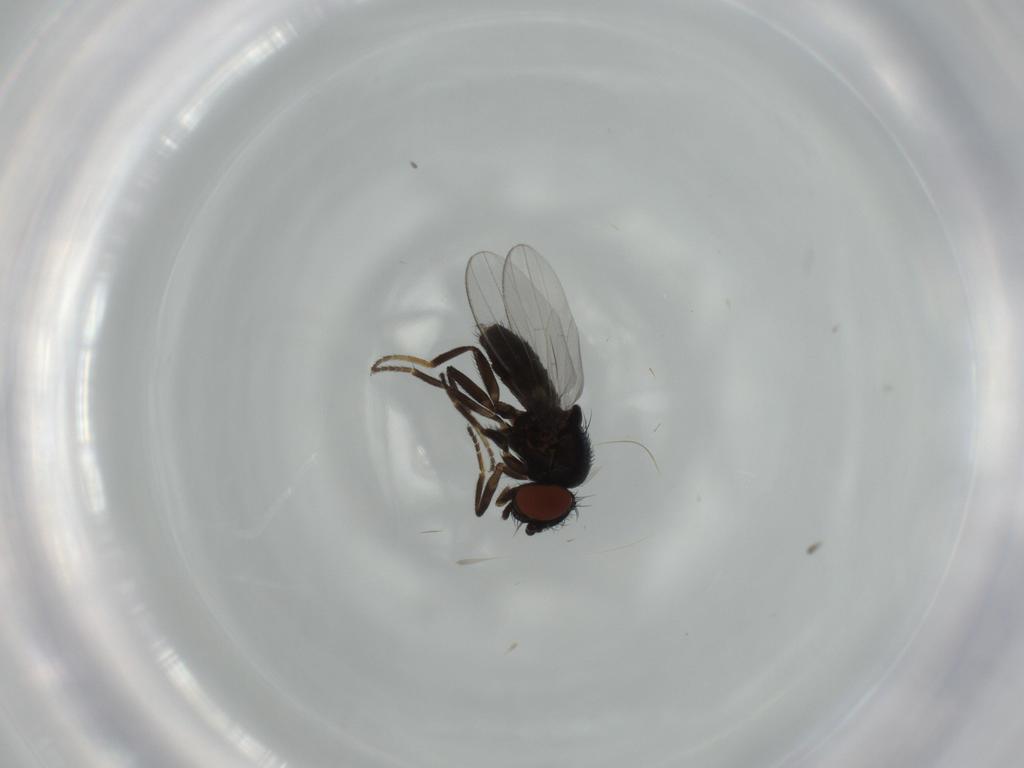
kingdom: Animalia
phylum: Arthropoda
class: Insecta
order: Diptera
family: Milichiidae
